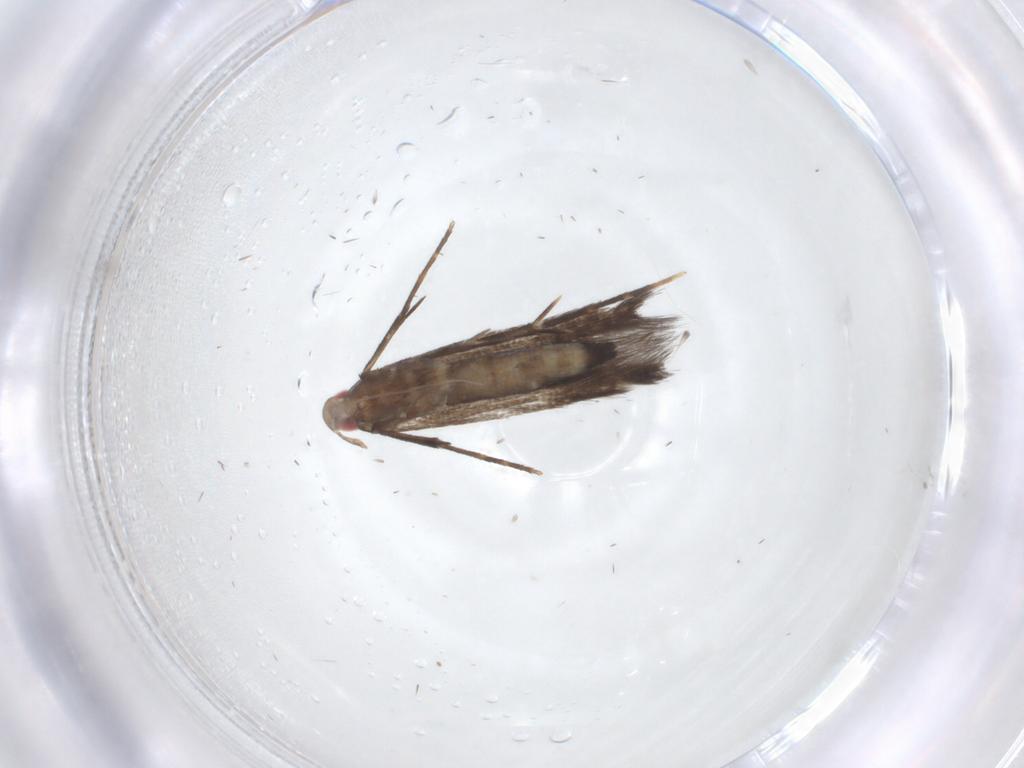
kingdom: Animalia
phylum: Arthropoda
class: Insecta
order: Lepidoptera
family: Cosmopterigidae
